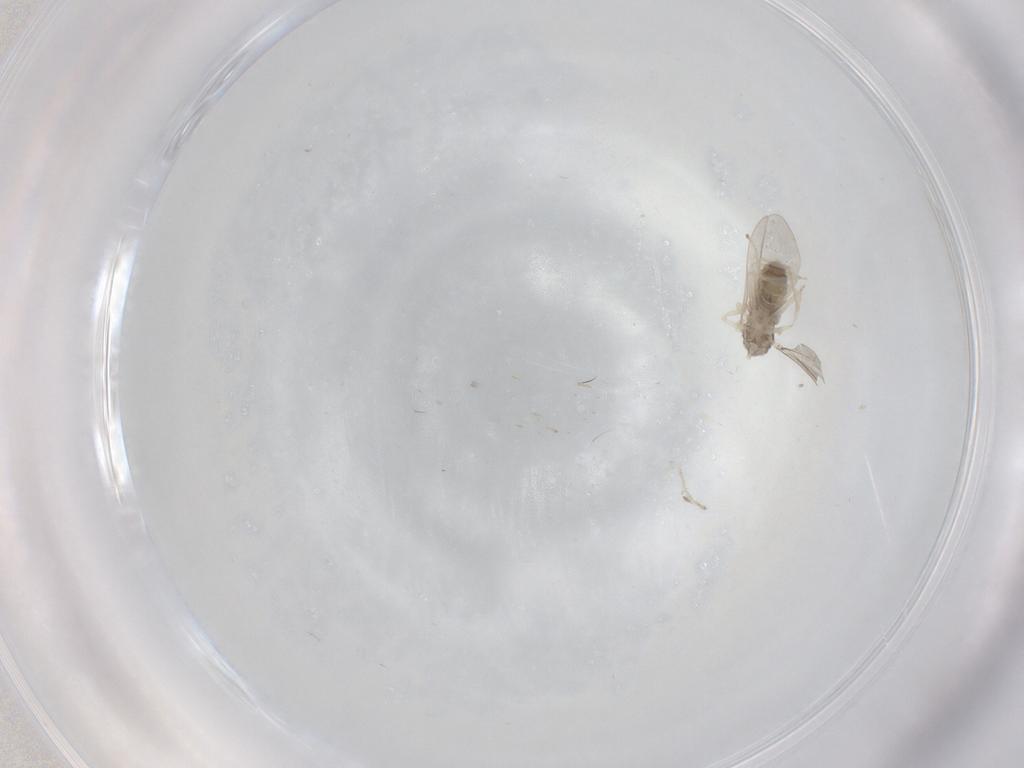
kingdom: Animalia
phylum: Arthropoda
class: Insecta
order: Diptera
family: Cecidomyiidae
